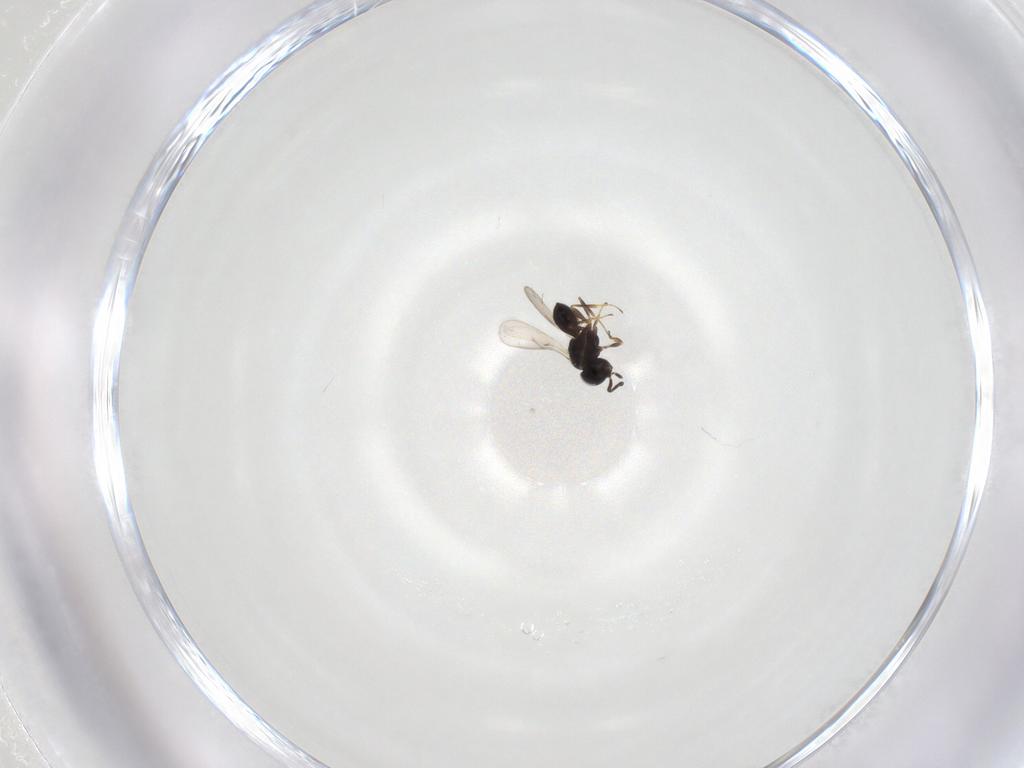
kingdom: Animalia
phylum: Arthropoda
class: Insecta
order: Hymenoptera
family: Scelionidae
